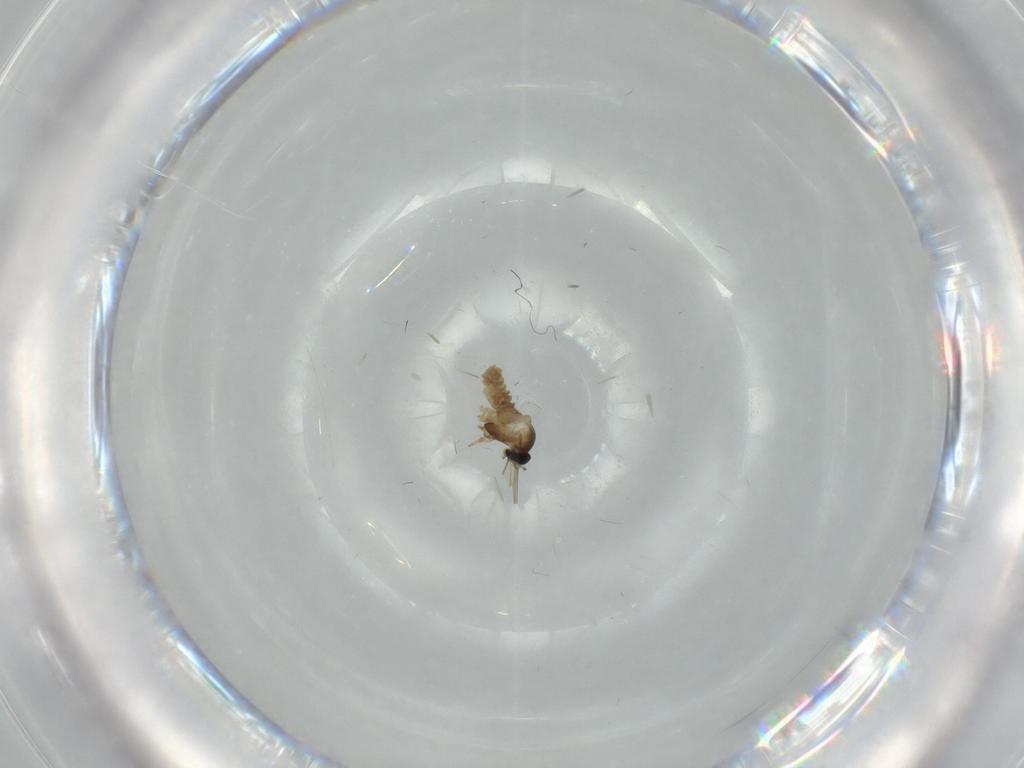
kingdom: Animalia
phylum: Arthropoda
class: Insecta
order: Diptera
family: Cecidomyiidae
